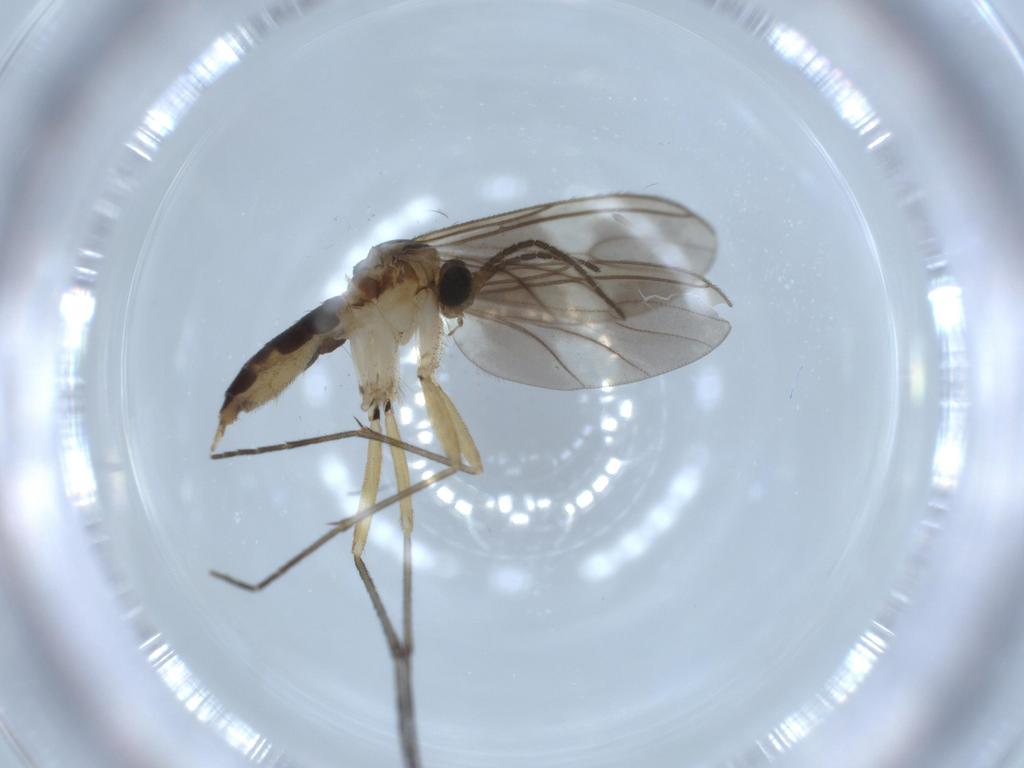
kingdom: Animalia
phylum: Arthropoda
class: Insecta
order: Diptera
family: Sciaridae
